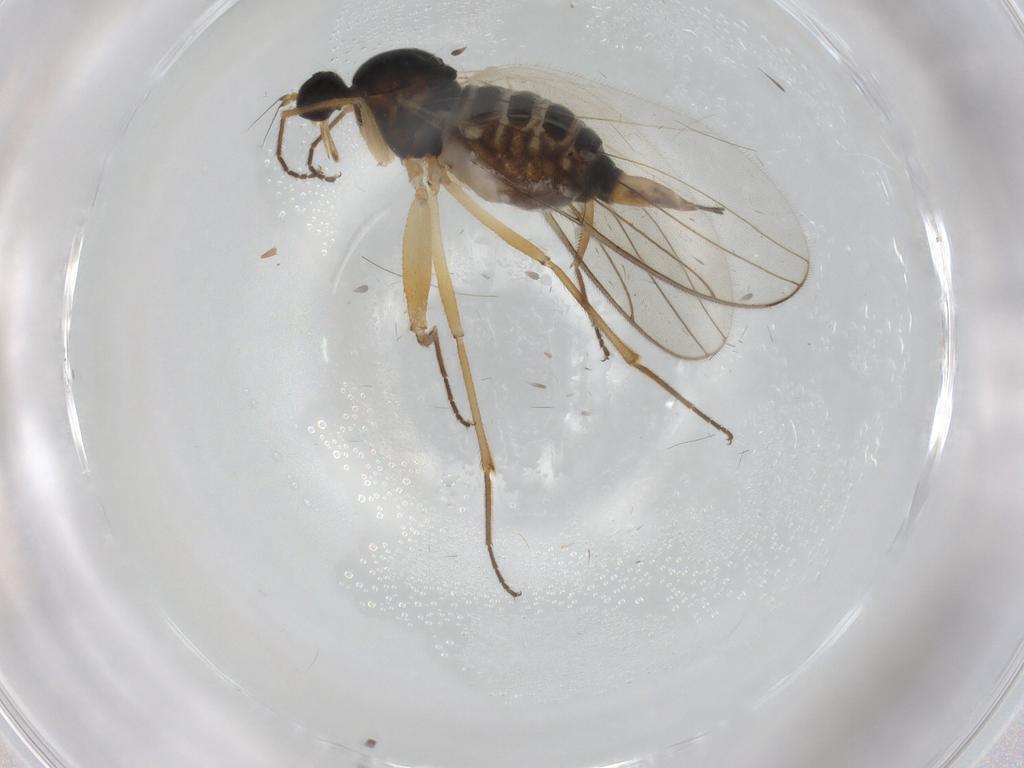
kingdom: Animalia
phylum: Arthropoda
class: Insecta
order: Diptera
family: Hybotidae
